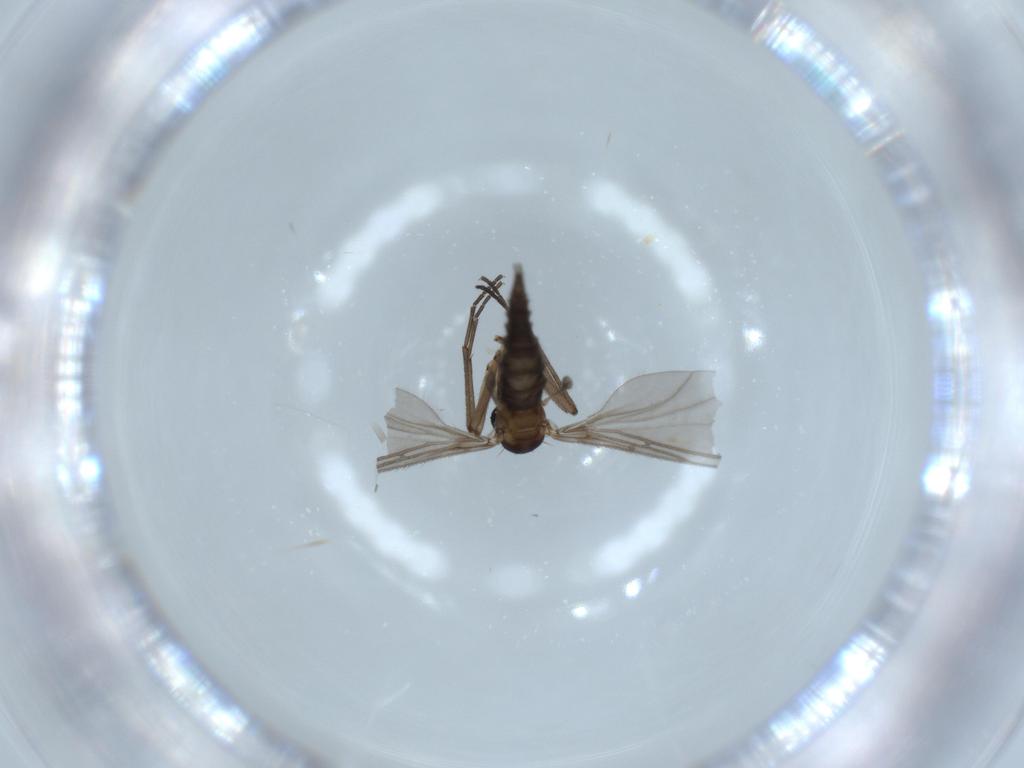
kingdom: Animalia
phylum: Arthropoda
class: Insecta
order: Diptera
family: Sciaridae
